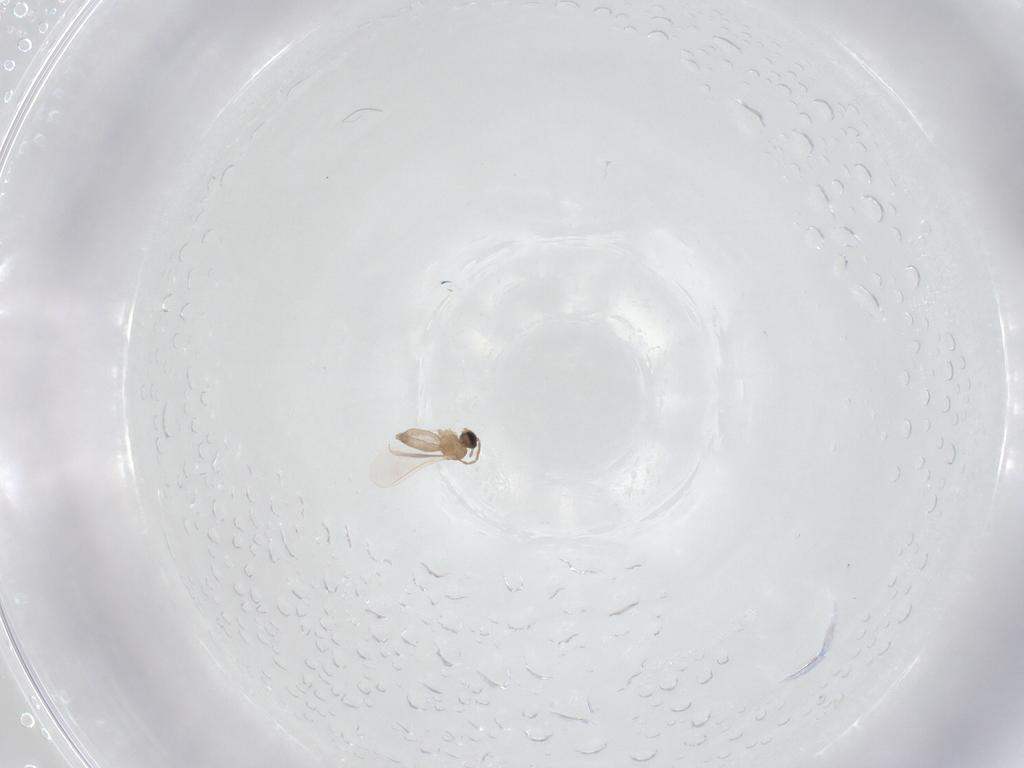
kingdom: Animalia
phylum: Arthropoda
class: Insecta
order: Diptera
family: Cecidomyiidae
